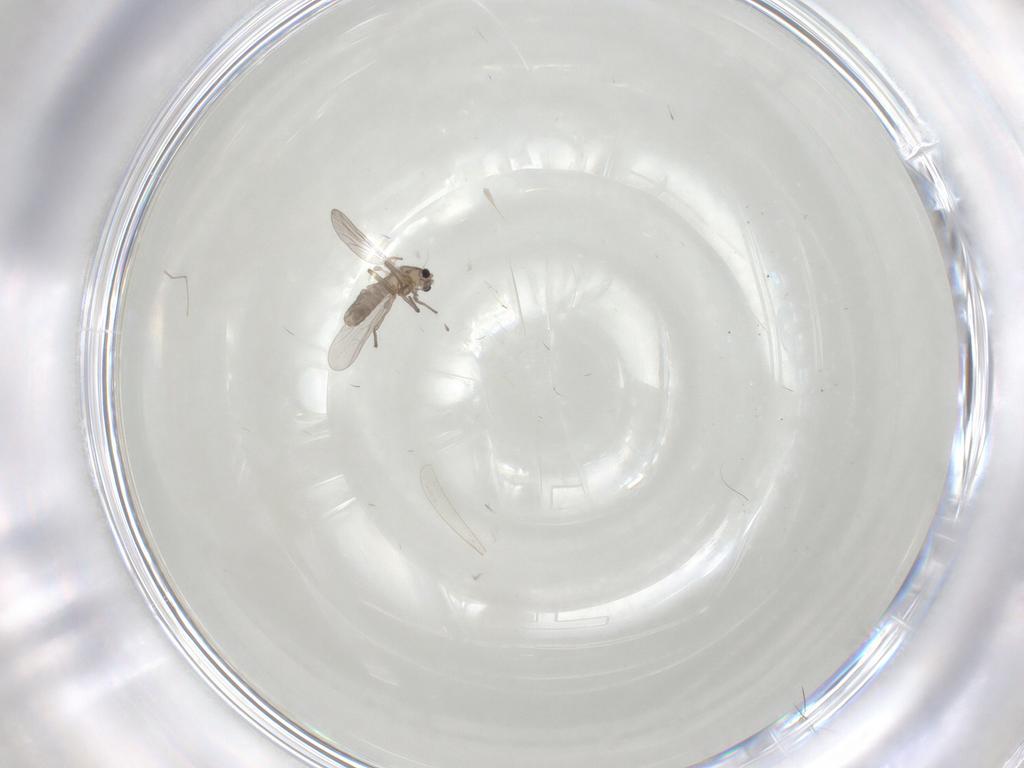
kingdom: Animalia
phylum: Arthropoda
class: Insecta
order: Diptera
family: Chironomidae
